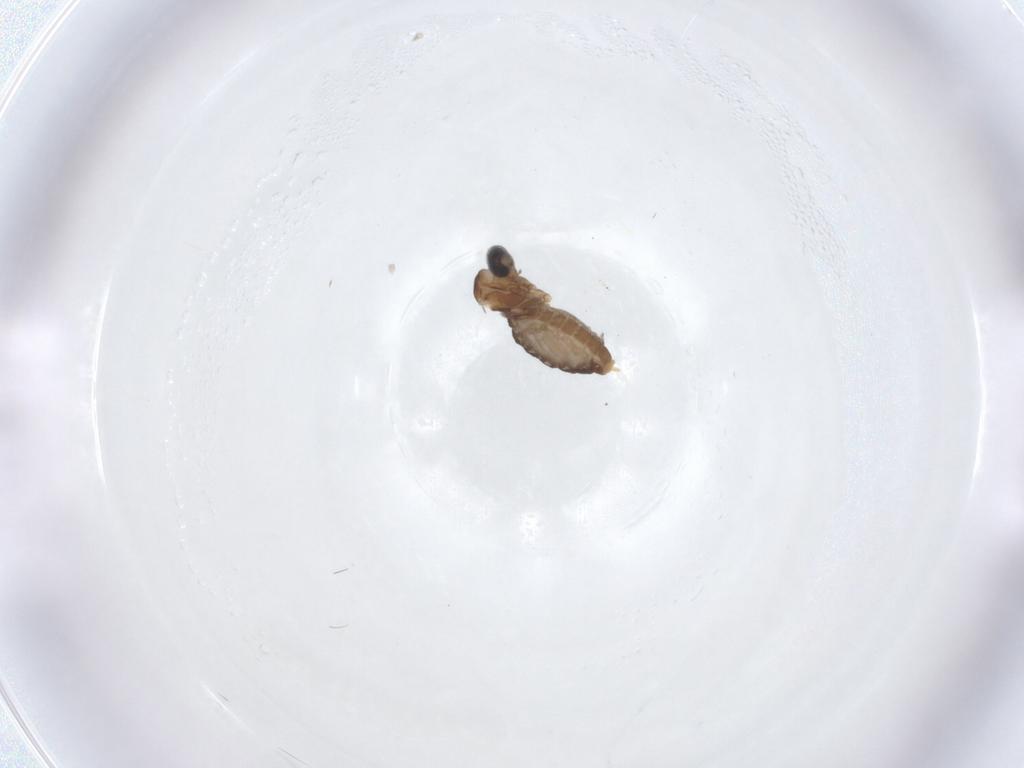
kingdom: Animalia
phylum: Arthropoda
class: Insecta
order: Diptera
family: Cecidomyiidae
